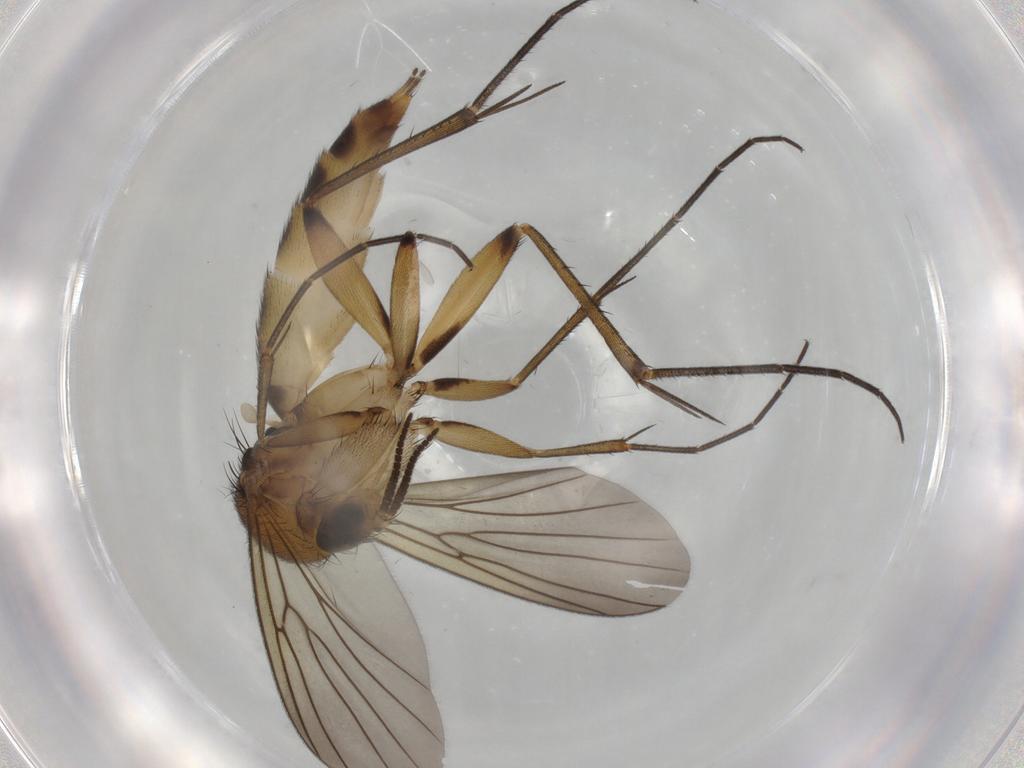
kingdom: Animalia
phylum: Arthropoda
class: Insecta
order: Diptera
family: Mycetophilidae
